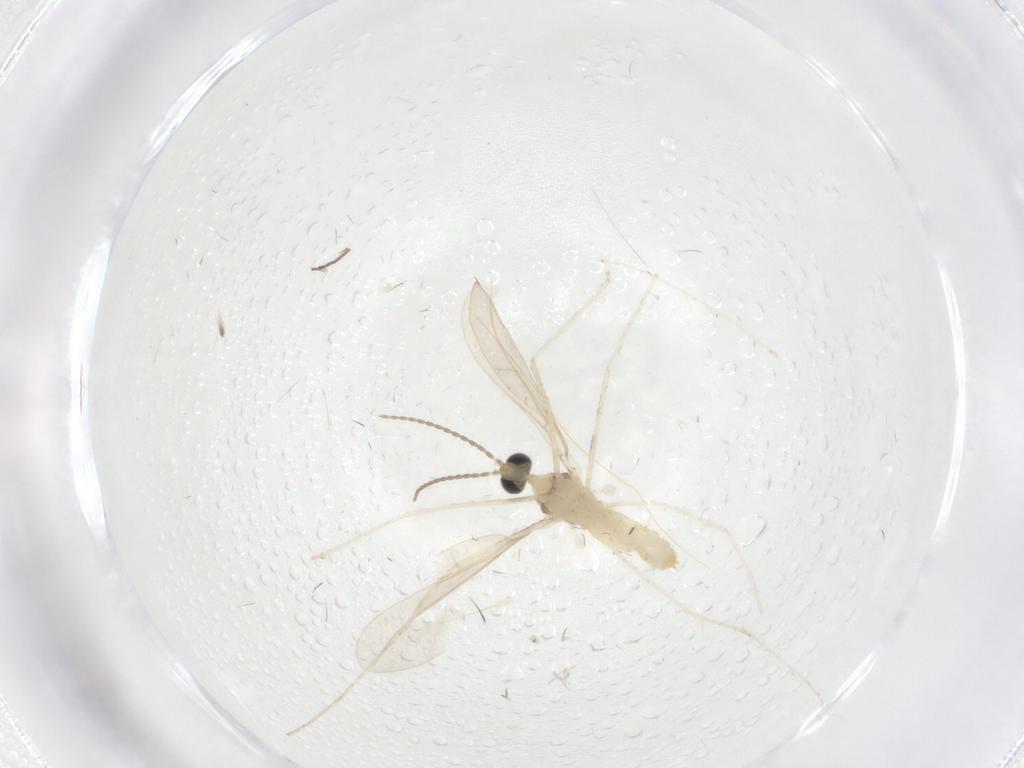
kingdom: Animalia
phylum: Arthropoda
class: Insecta
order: Diptera
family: Cecidomyiidae
